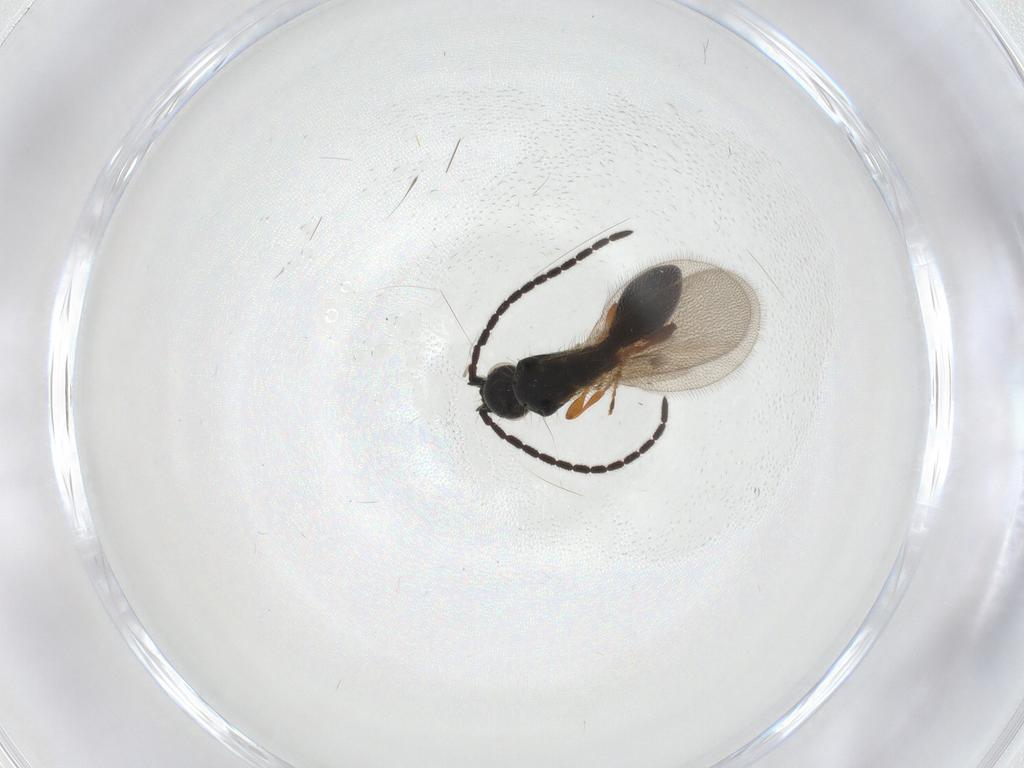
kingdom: Animalia
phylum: Arthropoda
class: Insecta
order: Hymenoptera
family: Diapriidae
